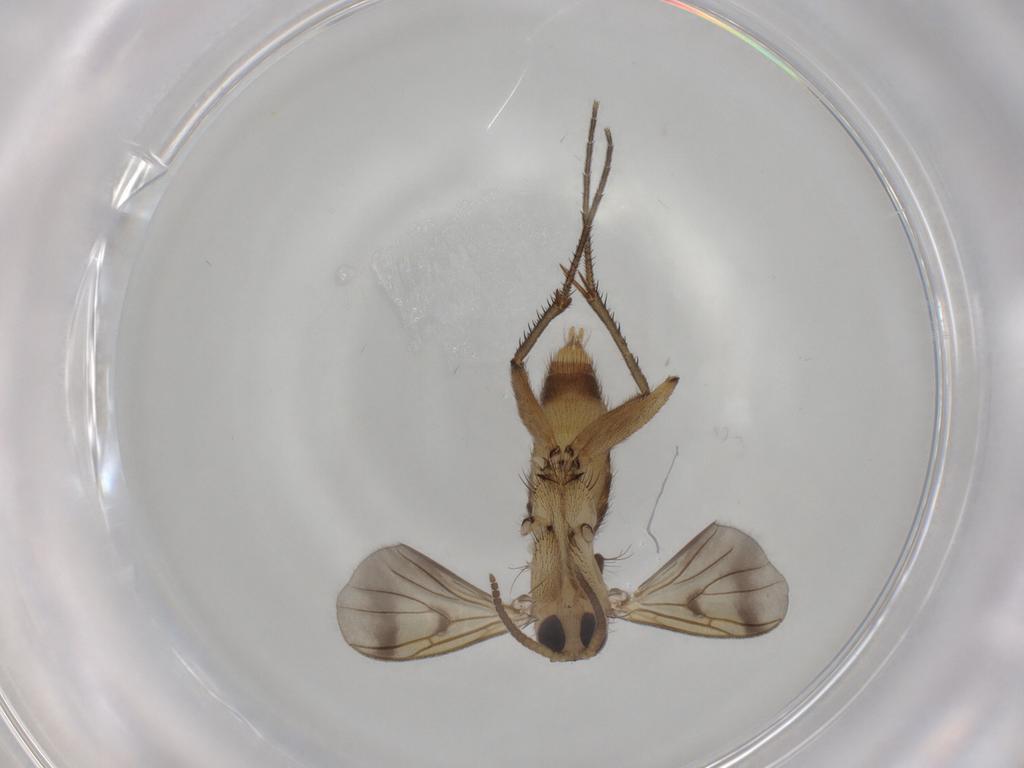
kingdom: Animalia
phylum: Arthropoda
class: Insecta
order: Diptera
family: Mycetophilidae
